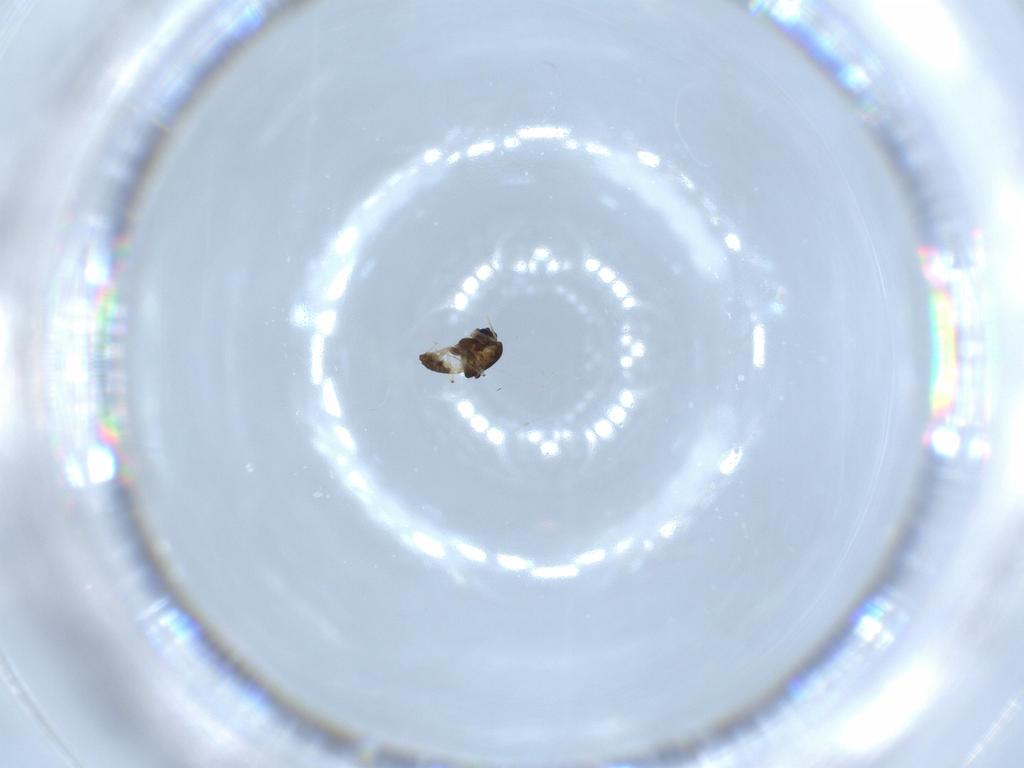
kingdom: Animalia
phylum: Arthropoda
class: Insecta
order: Diptera
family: Chironomidae
